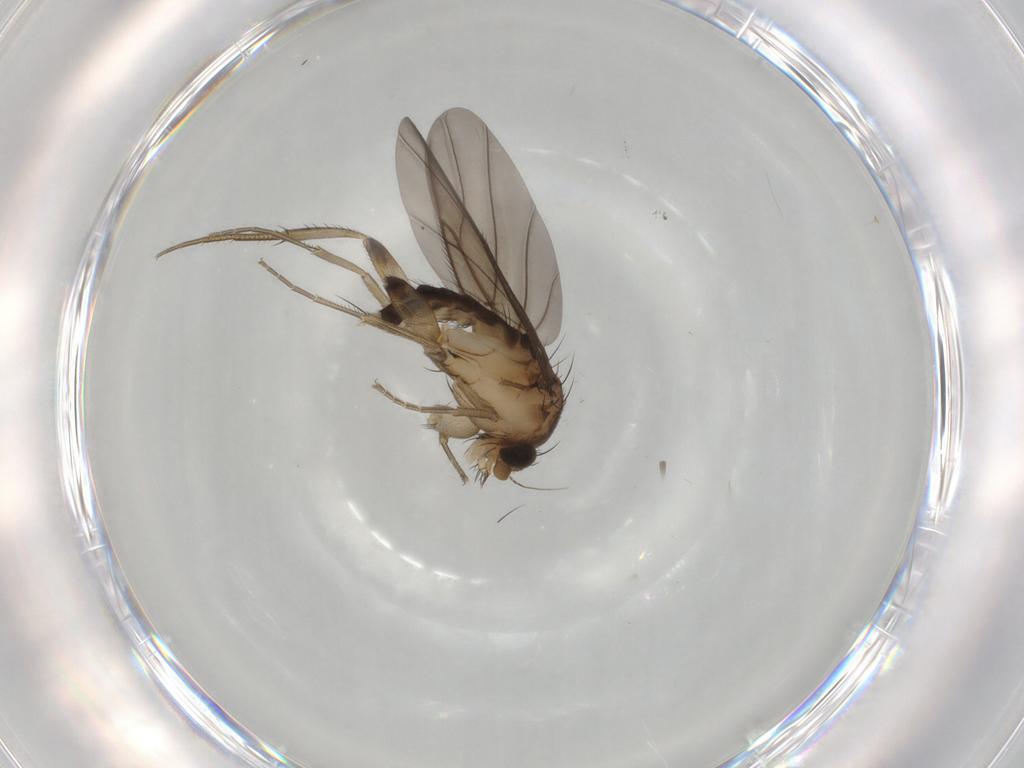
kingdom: Animalia
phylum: Arthropoda
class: Insecta
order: Diptera
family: Phoridae
